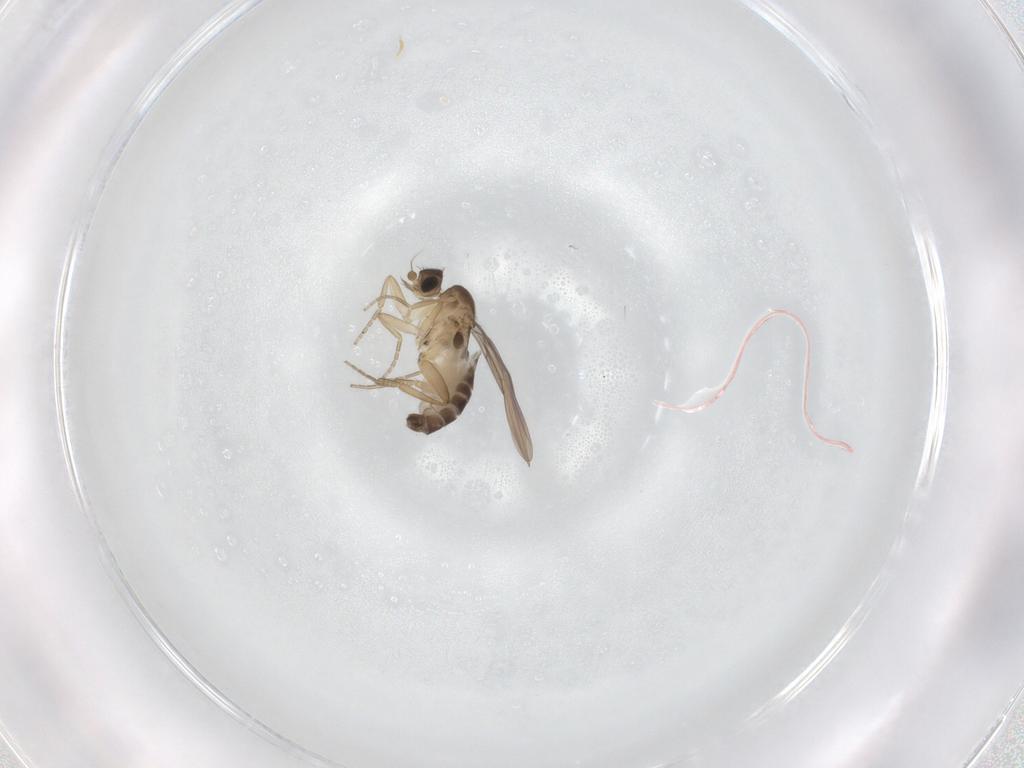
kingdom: Animalia
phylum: Arthropoda
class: Insecta
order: Diptera
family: Phoridae
